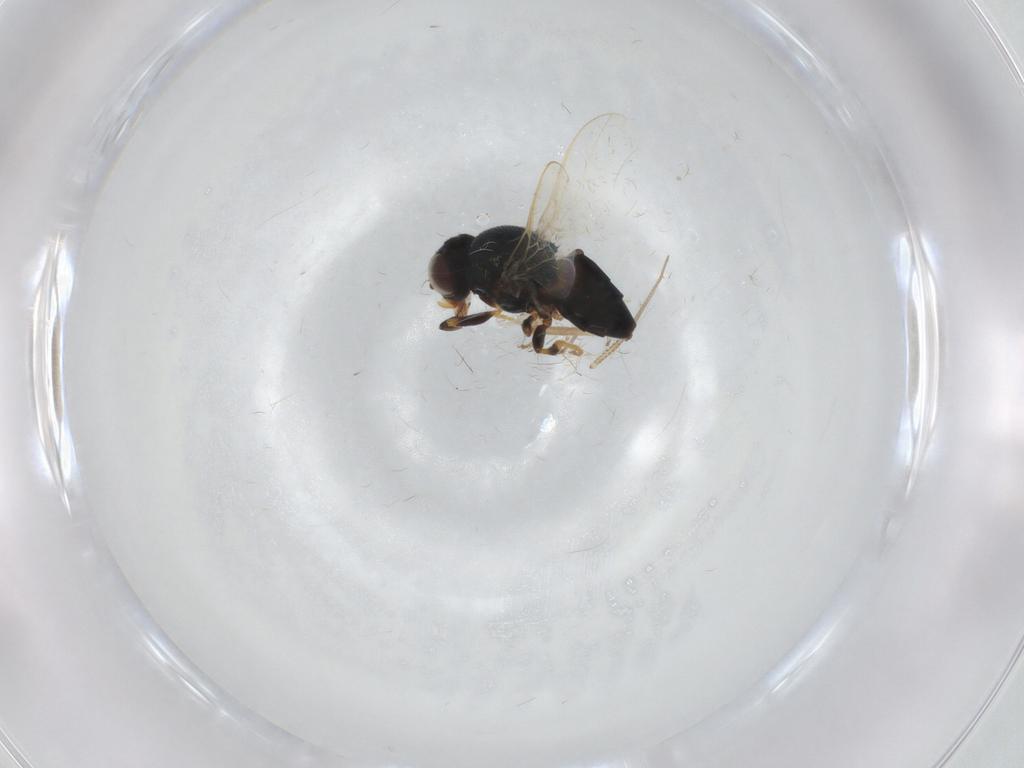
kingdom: Animalia
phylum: Arthropoda
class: Insecta
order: Diptera
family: Chloropidae
